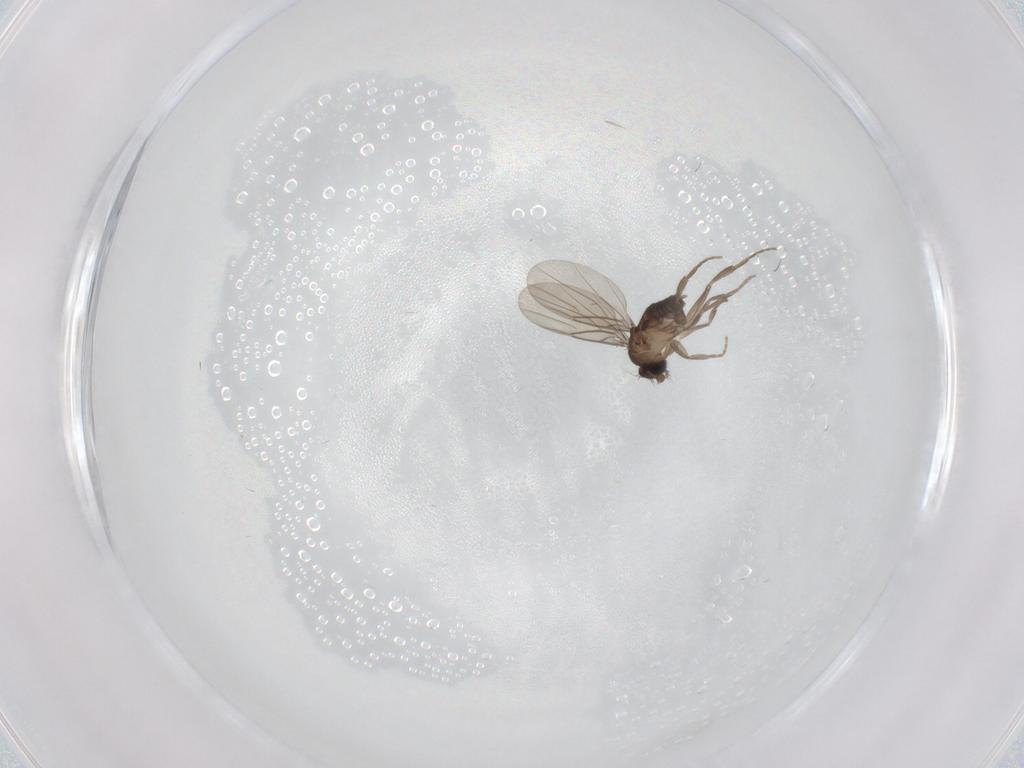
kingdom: Animalia
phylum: Arthropoda
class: Insecta
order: Diptera
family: Phoridae
